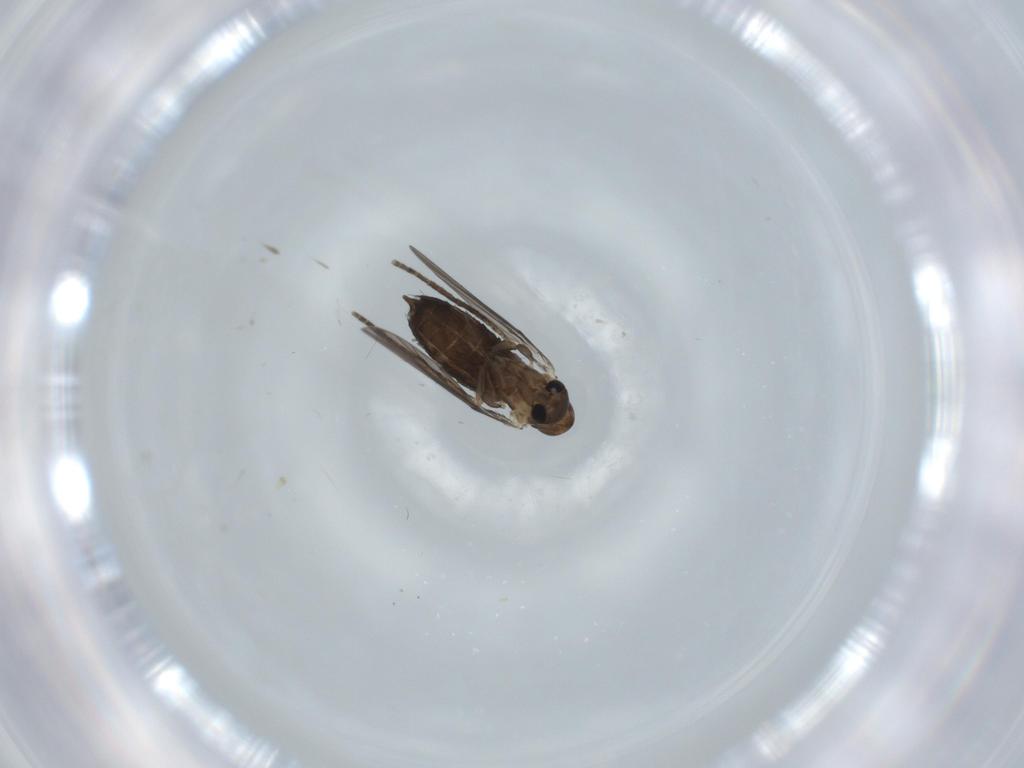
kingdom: Animalia
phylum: Arthropoda
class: Insecta
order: Diptera
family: Psychodidae
